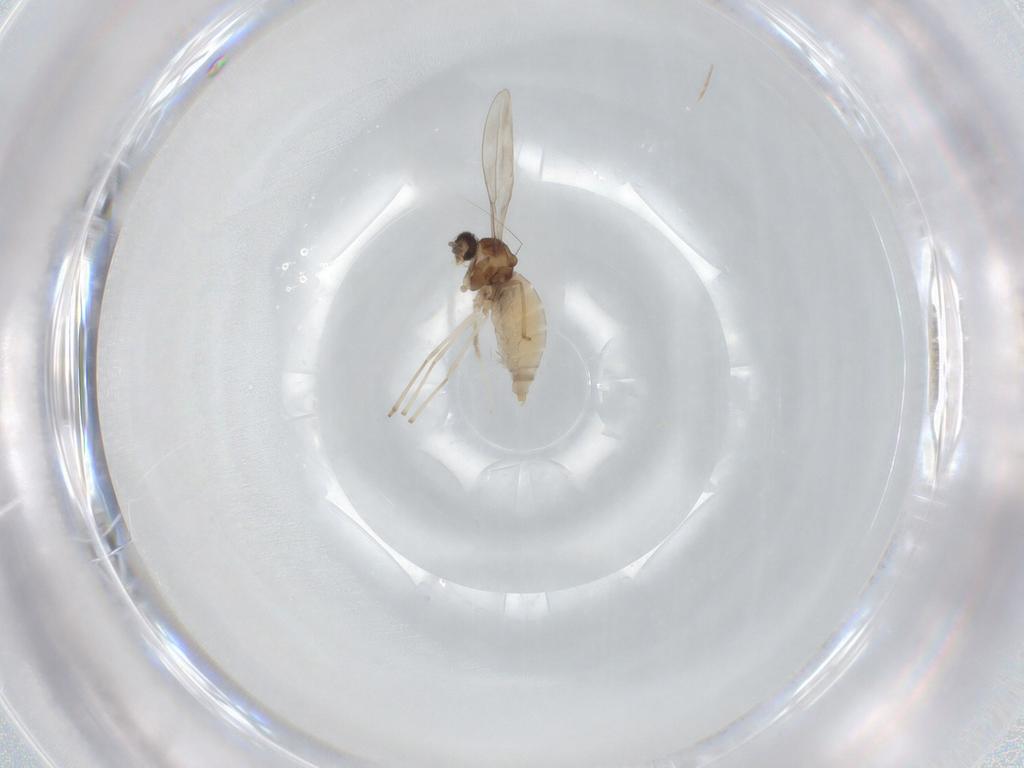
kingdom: Animalia
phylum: Arthropoda
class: Insecta
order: Diptera
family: Cecidomyiidae
